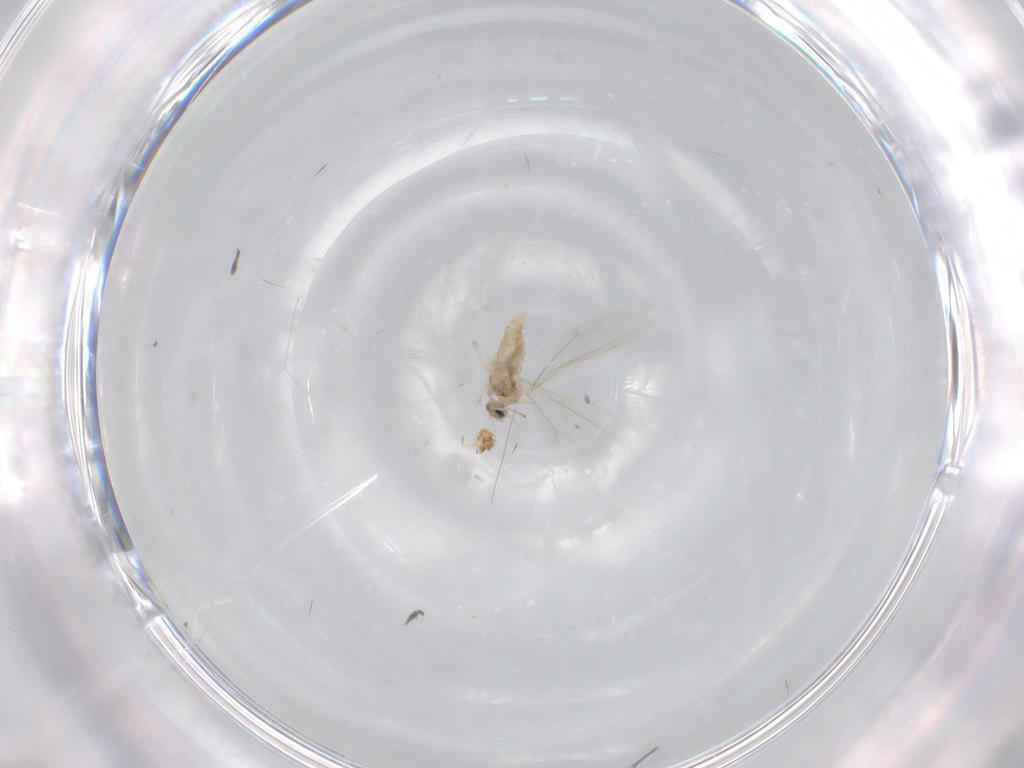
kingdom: Animalia
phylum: Arthropoda
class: Insecta
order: Diptera
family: Cecidomyiidae
